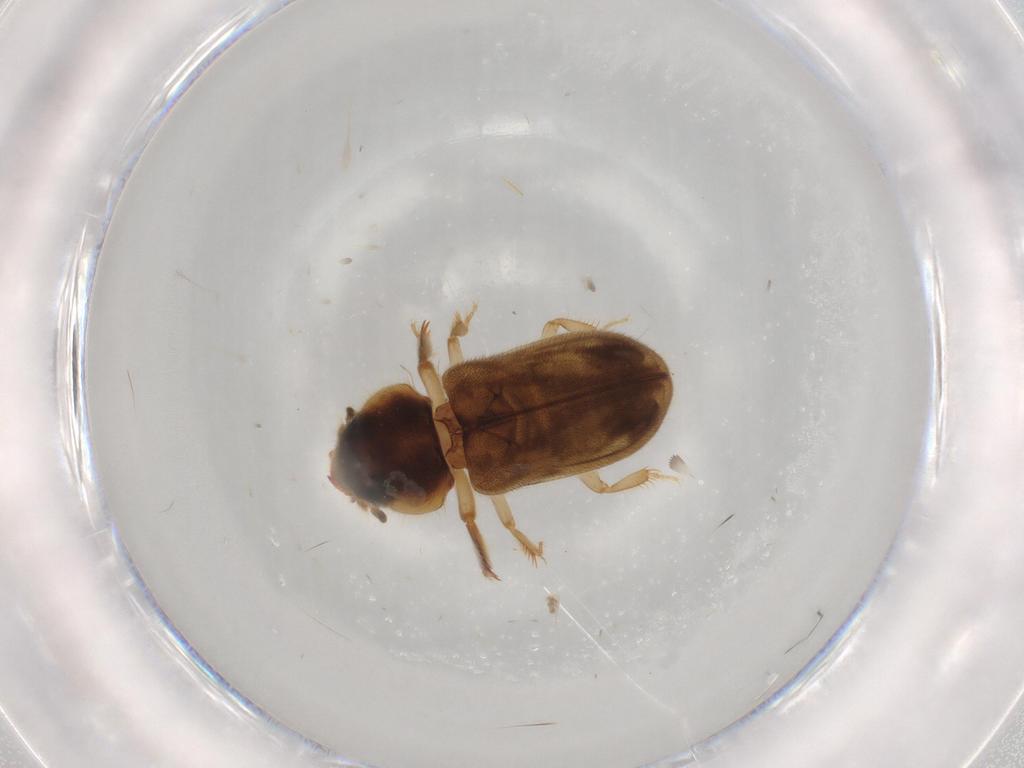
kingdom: Animalia
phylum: Arthropoda
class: Insecta
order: Coleoptera
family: Heteroceridae
